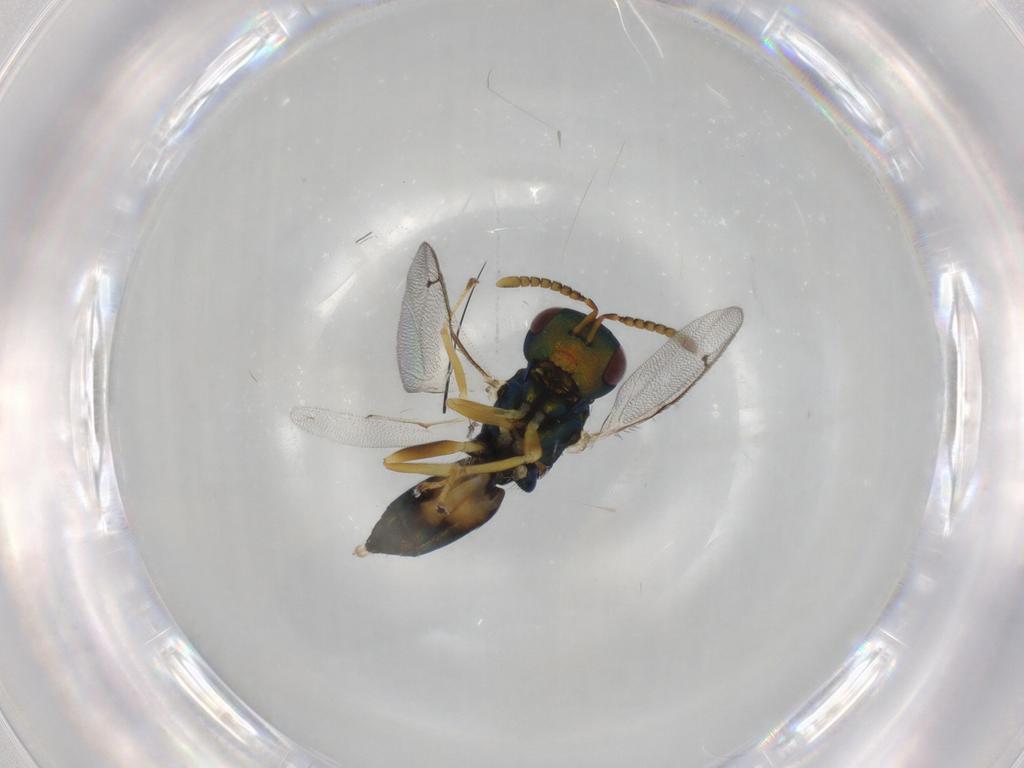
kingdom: Animalia
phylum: Arthropoda
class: Insecta
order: Hymenoptera
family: Pteromalidae
